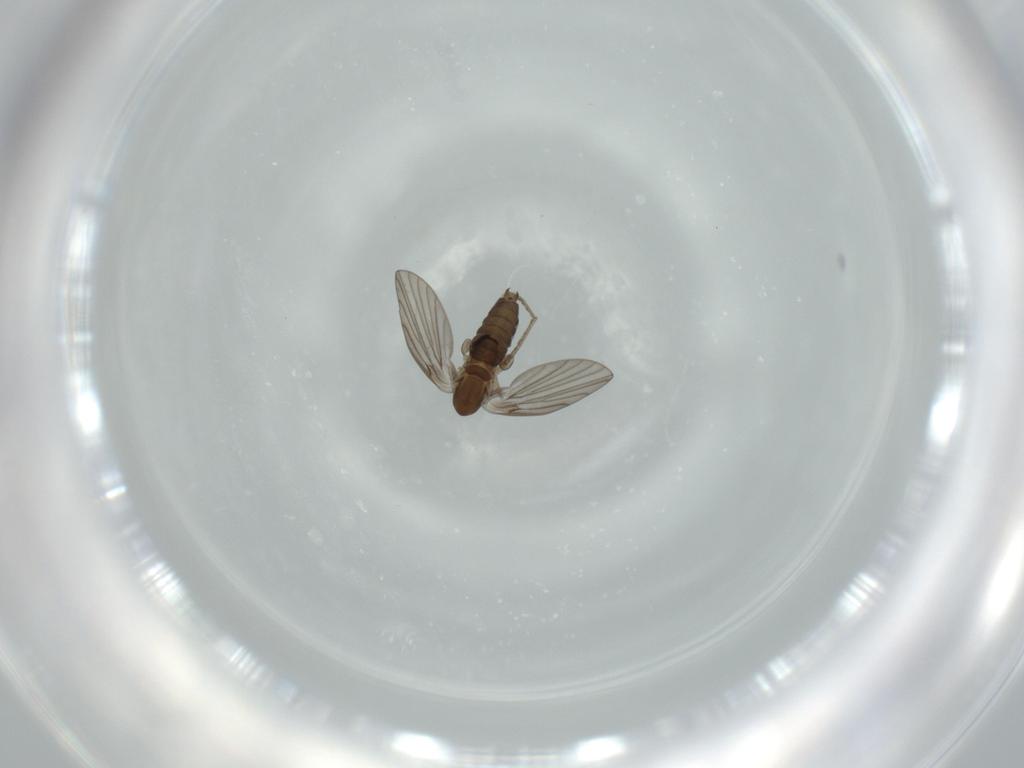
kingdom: Animalia
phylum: Arthropoda
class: Insecta
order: Diptera
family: Psychodidae
